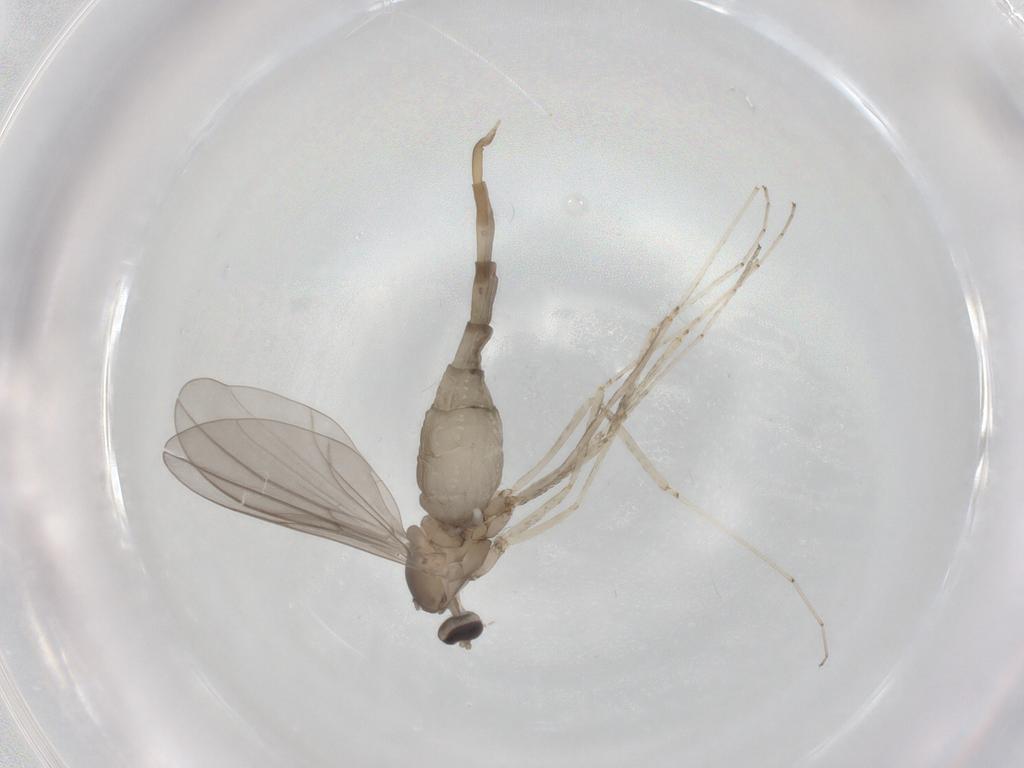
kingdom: Animalia
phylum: Arthropoda
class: Insecta
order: Diptera
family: Cecidomyiidae
